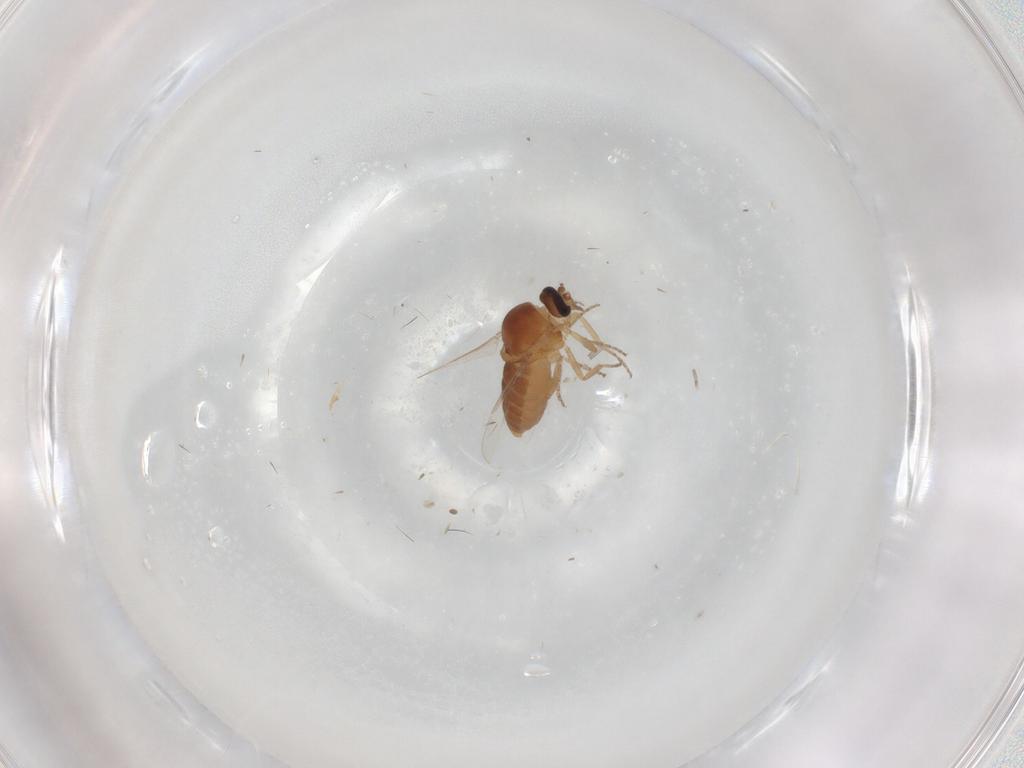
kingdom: Animalia
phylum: Arthropoda
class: Insecta
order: Diptera
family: Ceratopogonidae
